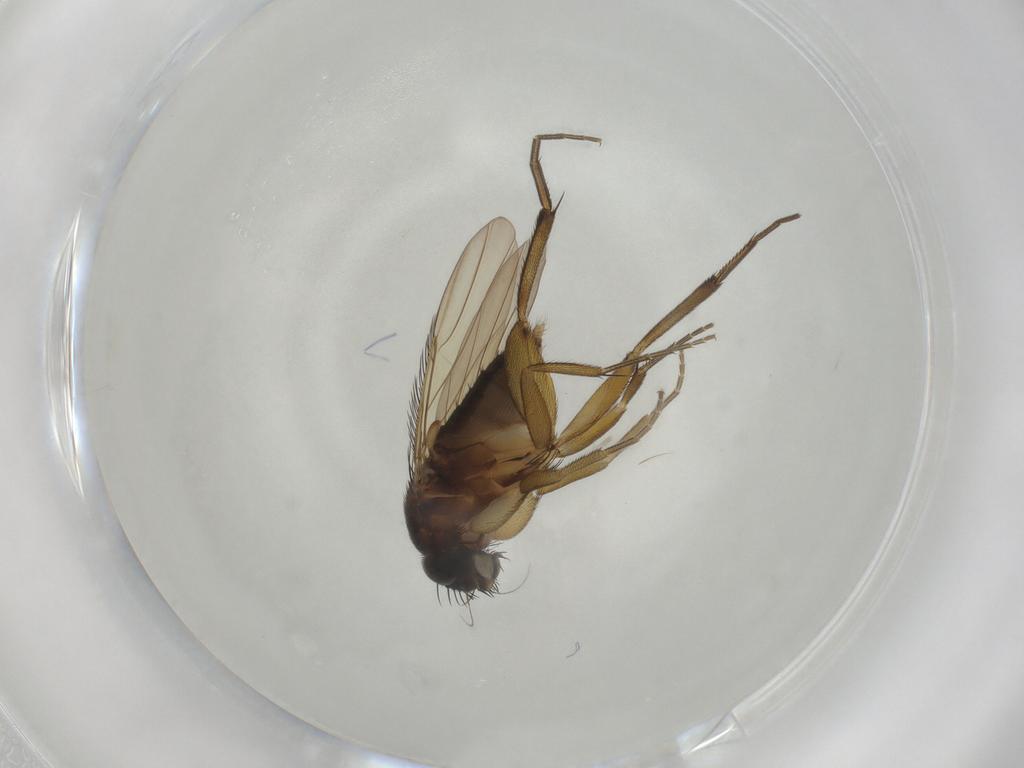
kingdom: Animalia
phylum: Arthropoda
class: Insecta
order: Diptera
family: Phoridae
